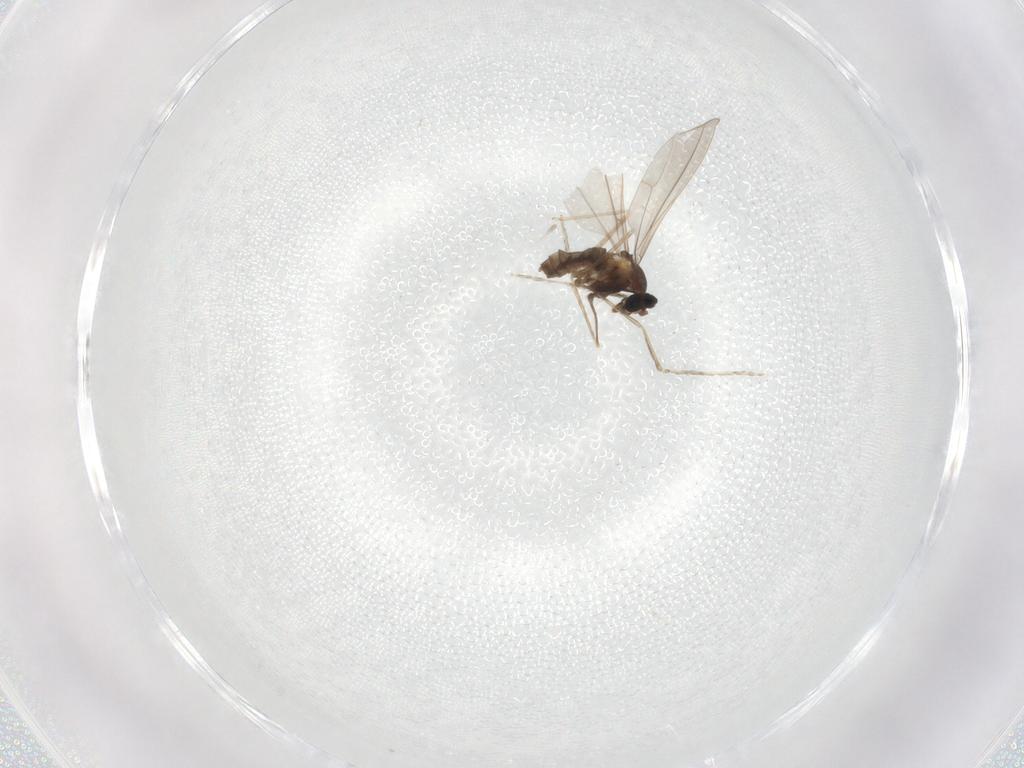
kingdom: Animalia
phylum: Arthropoda
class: Insecta
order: Diptera
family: Cecidomyiidae
